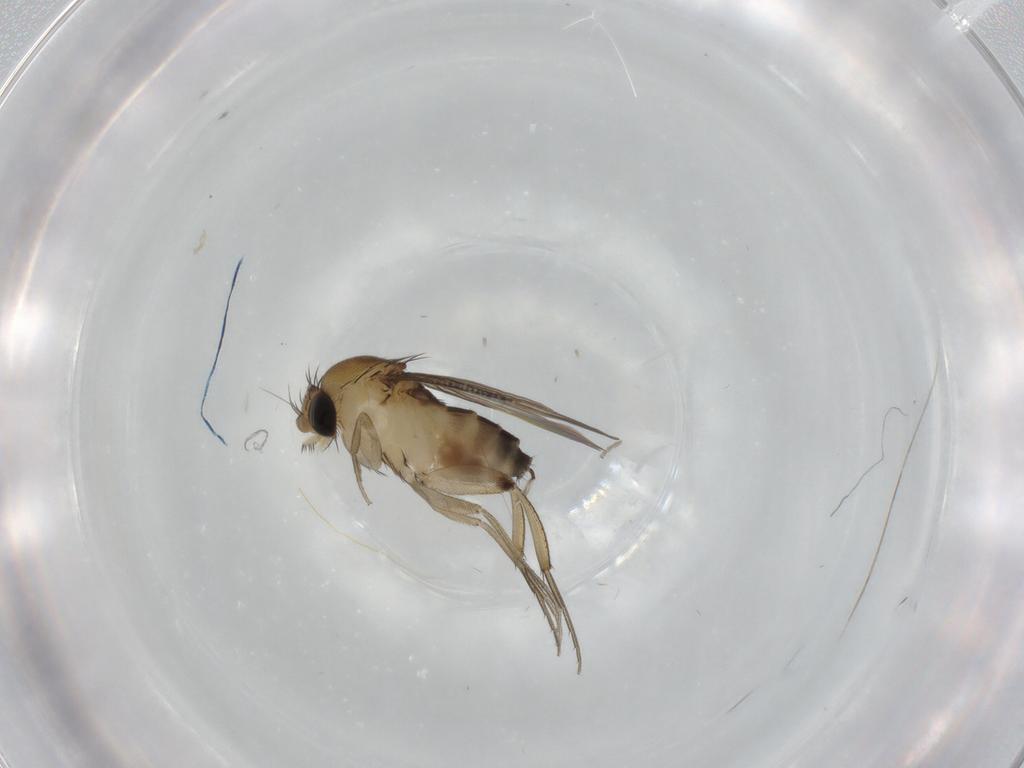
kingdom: Animalia
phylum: Arthropoda
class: Insecta
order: Diptera
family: Phoridae
